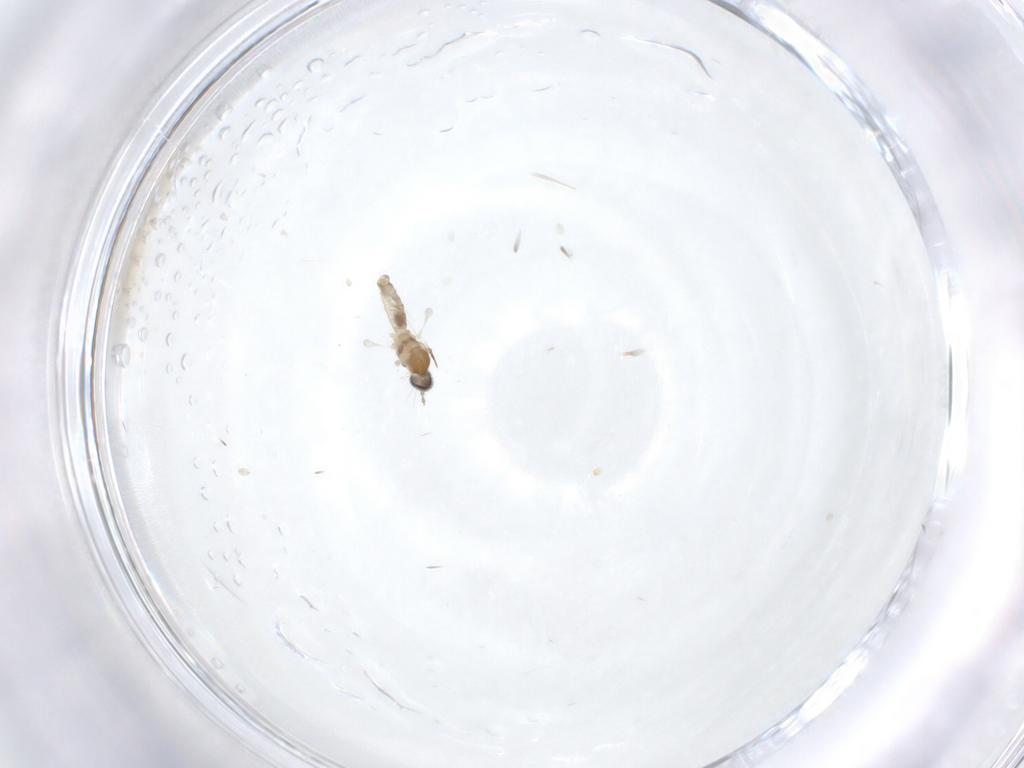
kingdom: Animalia
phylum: Arthropoda
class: Insecta
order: Diptera
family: Cecidomyiidae
